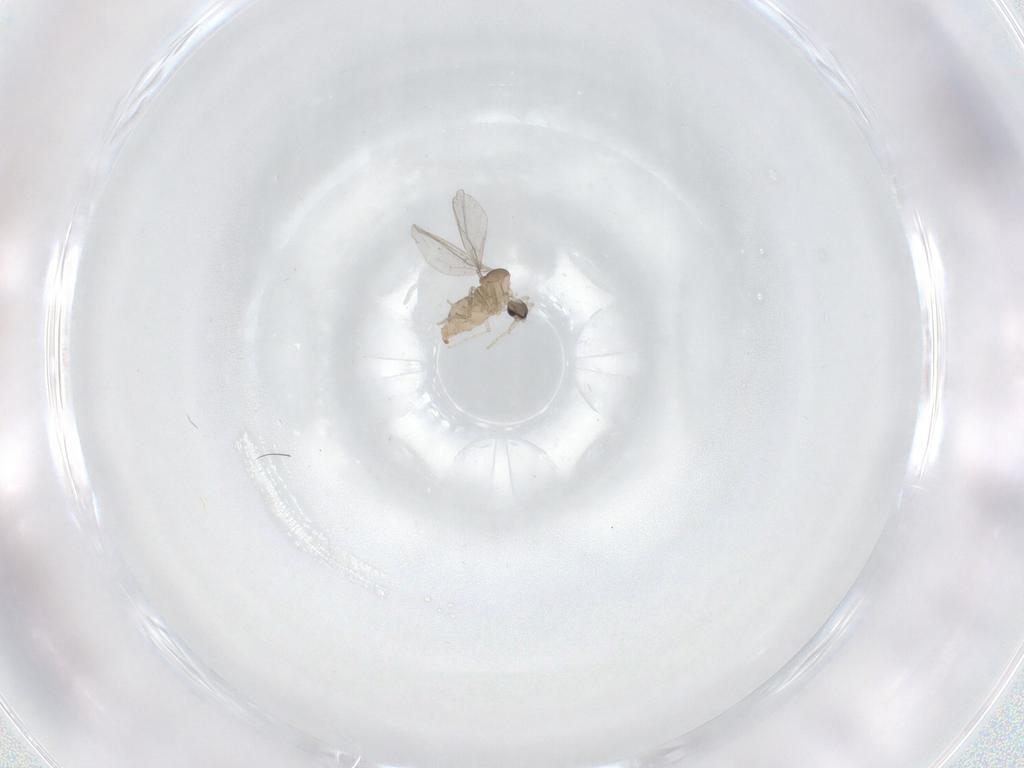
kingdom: Animalia
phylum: Arthropoda
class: Insecta
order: Diptera
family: Cecidomyiidae
